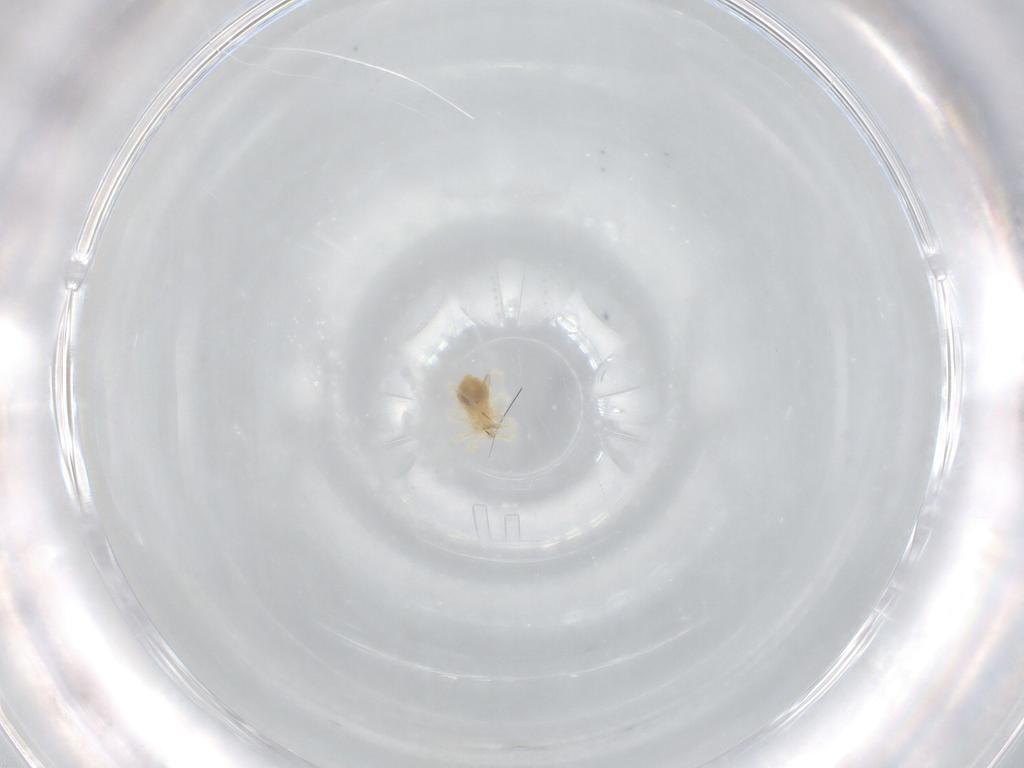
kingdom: Animalia
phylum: Arthropoda
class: Arachnida
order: Trombidiformes
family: Anystidae
